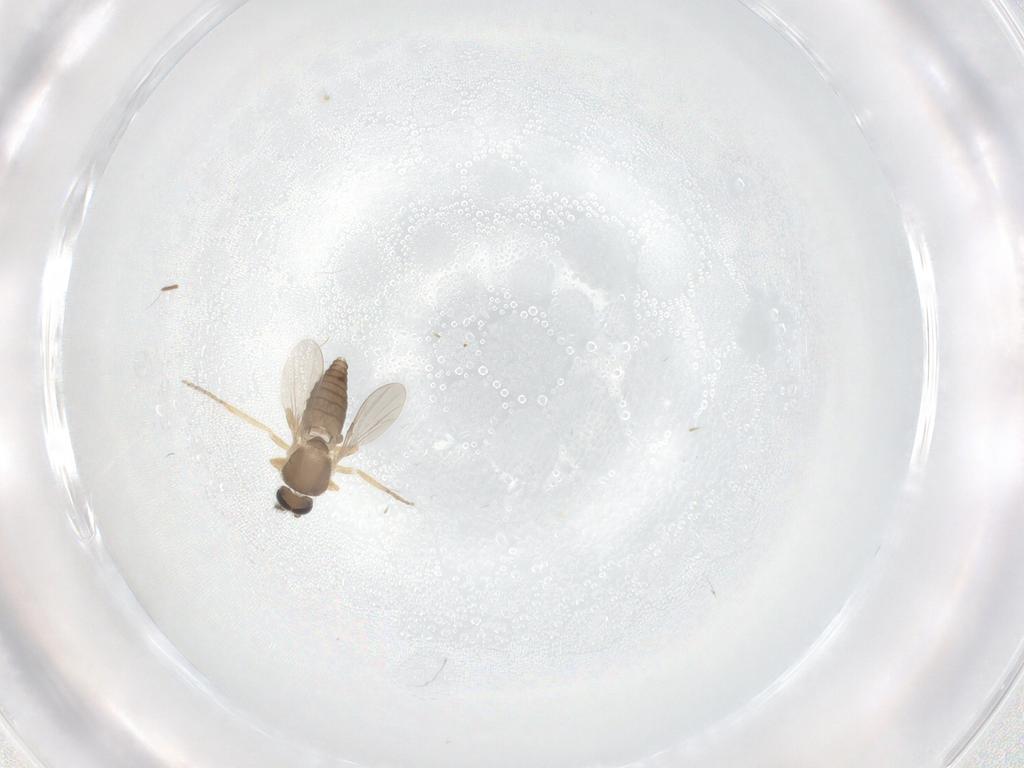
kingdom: Animalia
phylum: Arthropoda
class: Insecta
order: Diptera
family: Ceratopogonidae
